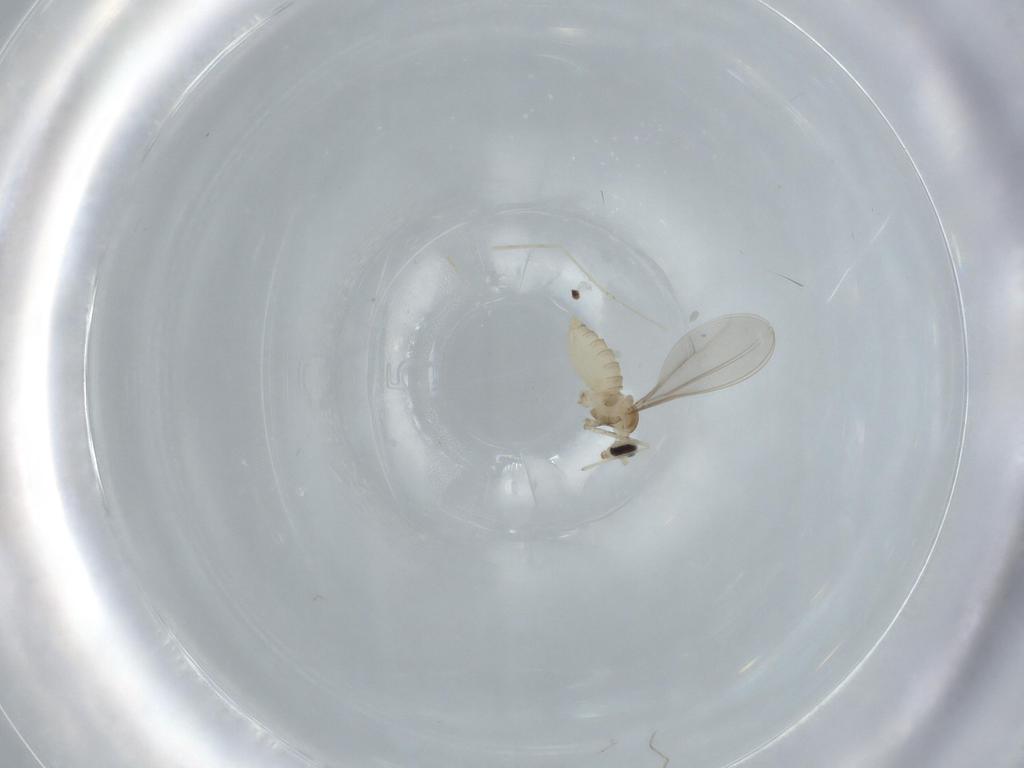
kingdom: Animalia
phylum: Arthropoda
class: Insecta
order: Diptera
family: Cecidomyiidae
